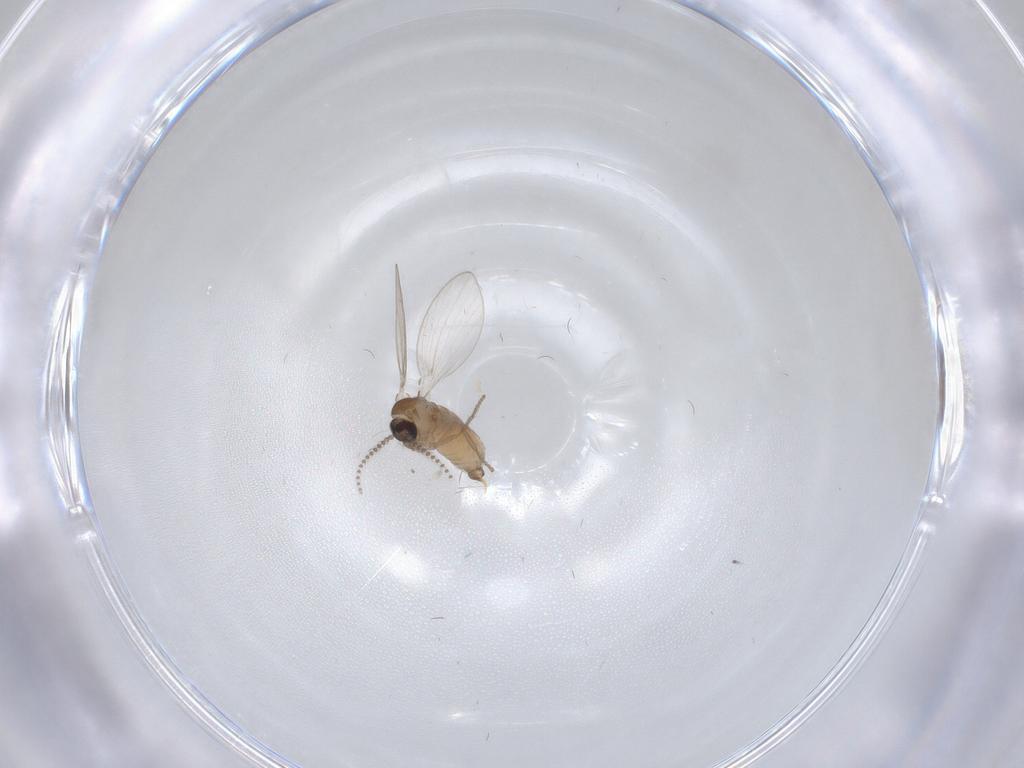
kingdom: Animalia
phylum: Arthropoda
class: Insecta
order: Diptera
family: Psychodidae
